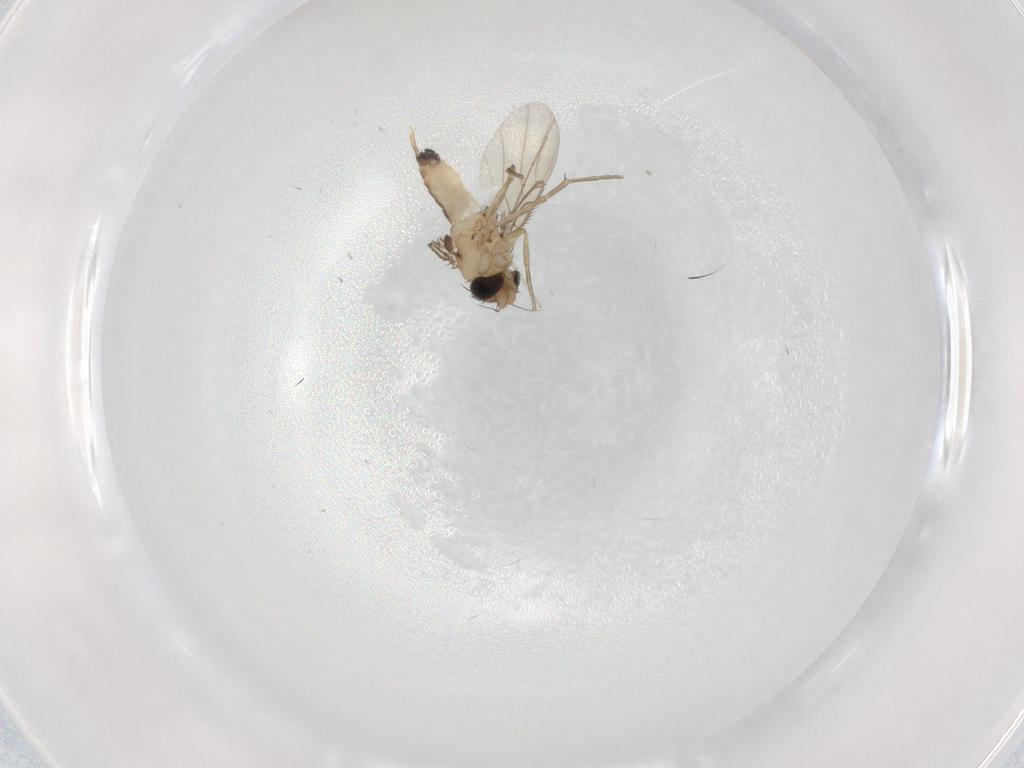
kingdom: Animalia
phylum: Arthropoda
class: Insecta
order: Diptera
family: Phoridae
